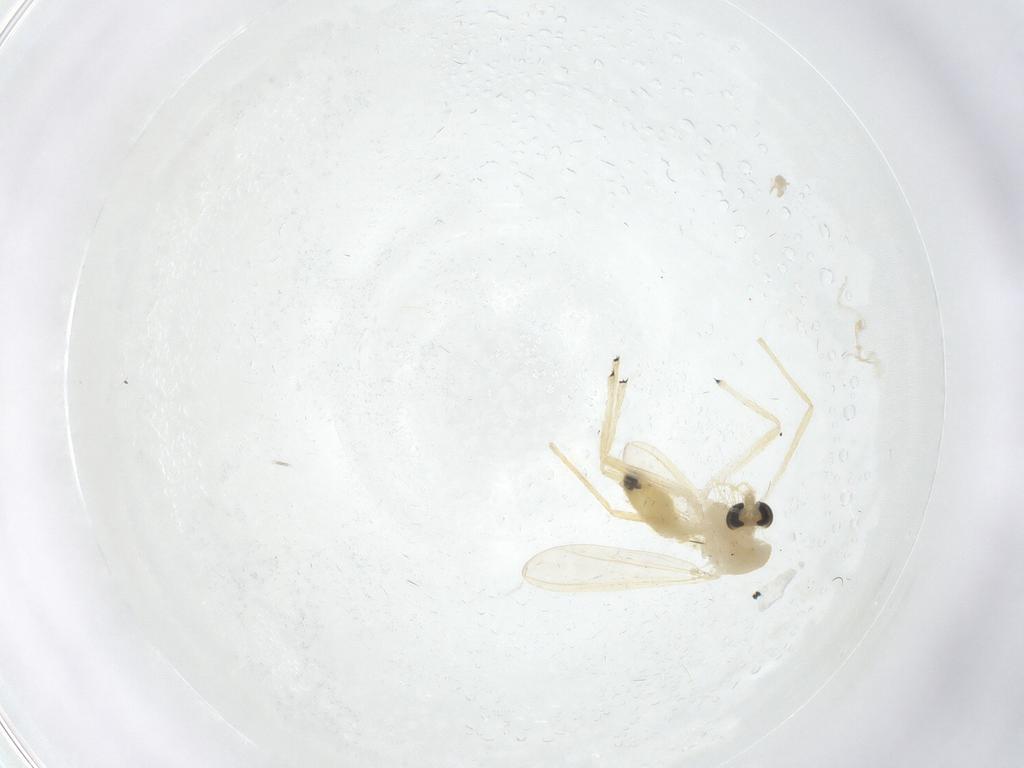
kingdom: Animalia
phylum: Arthropoda
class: Insecta
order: Diptera
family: Chironomidae
